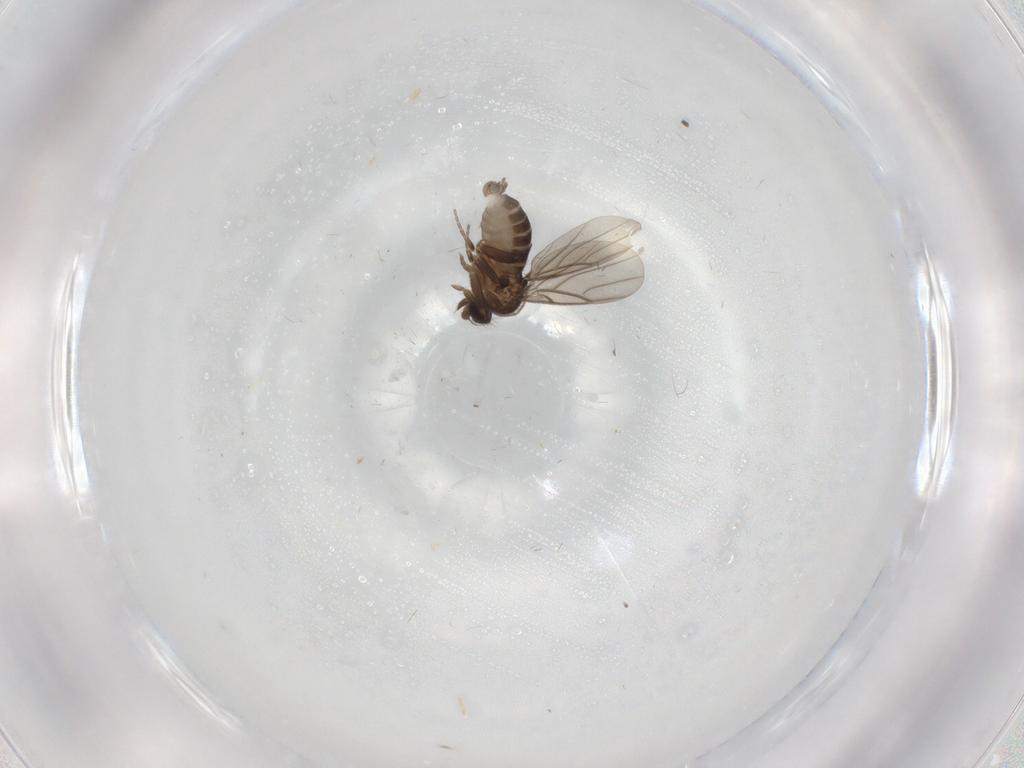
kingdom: Animalia
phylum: Arthropoda
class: Insecta
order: Diptera
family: Phoridae
